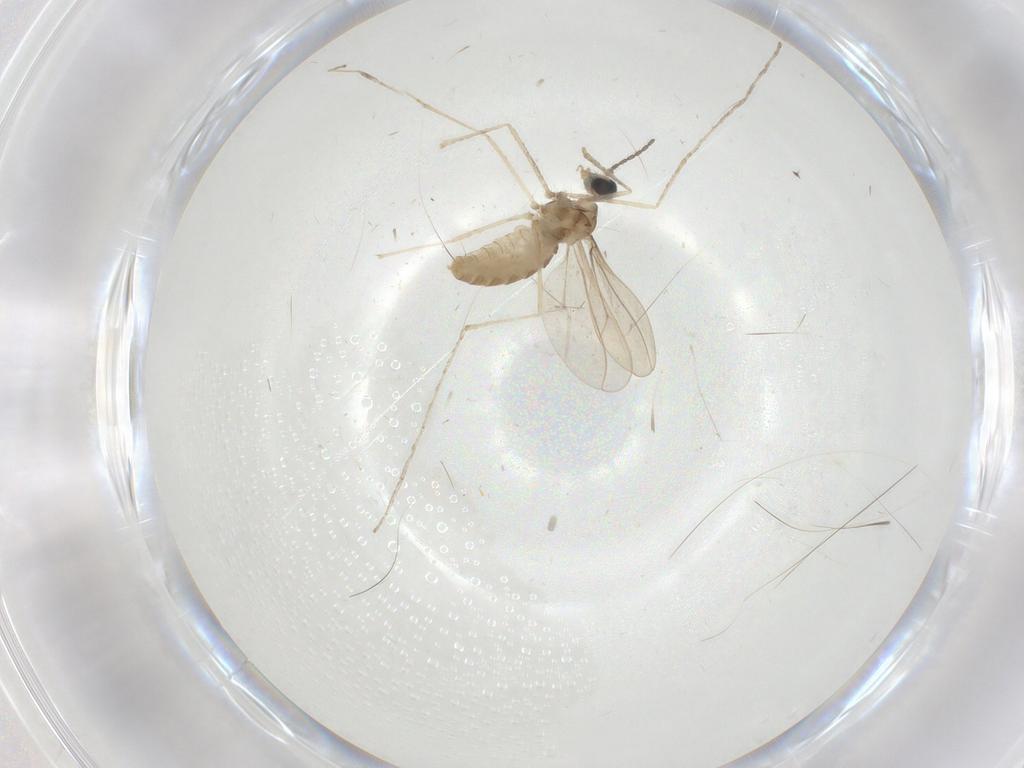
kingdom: Animalia
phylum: Arthropoda
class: Insecta
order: Diptera
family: Cecidomyiidae
